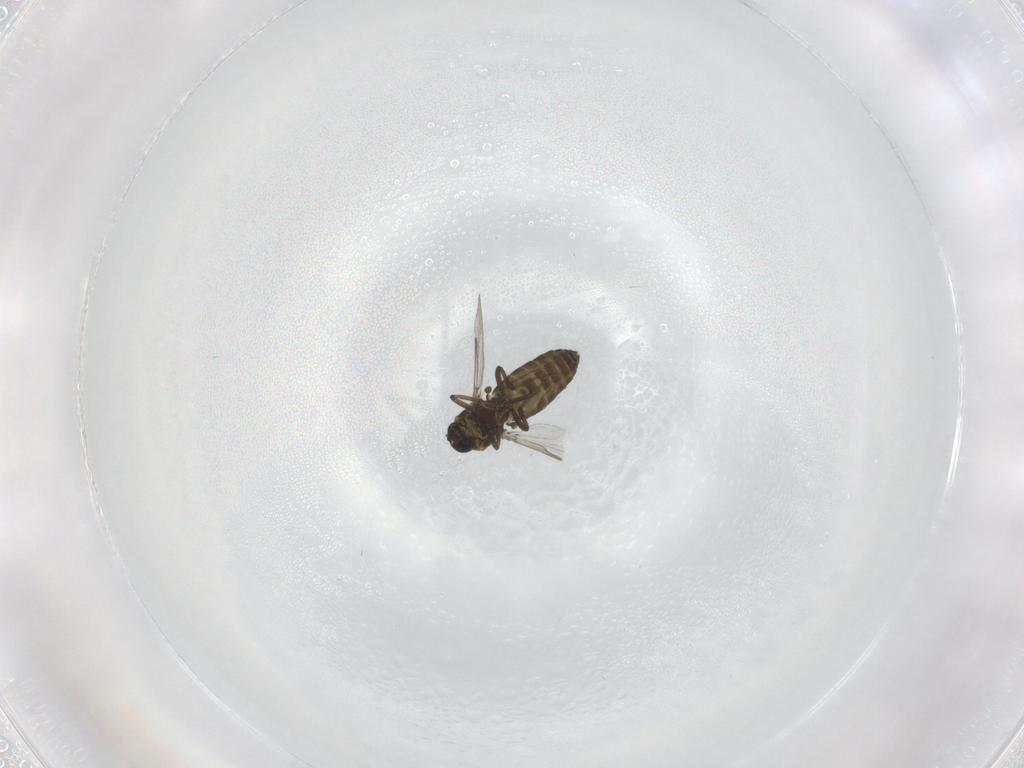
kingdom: Animalia
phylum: Arthropoda
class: Insecta
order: Diptera
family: Ceratopogonidae
